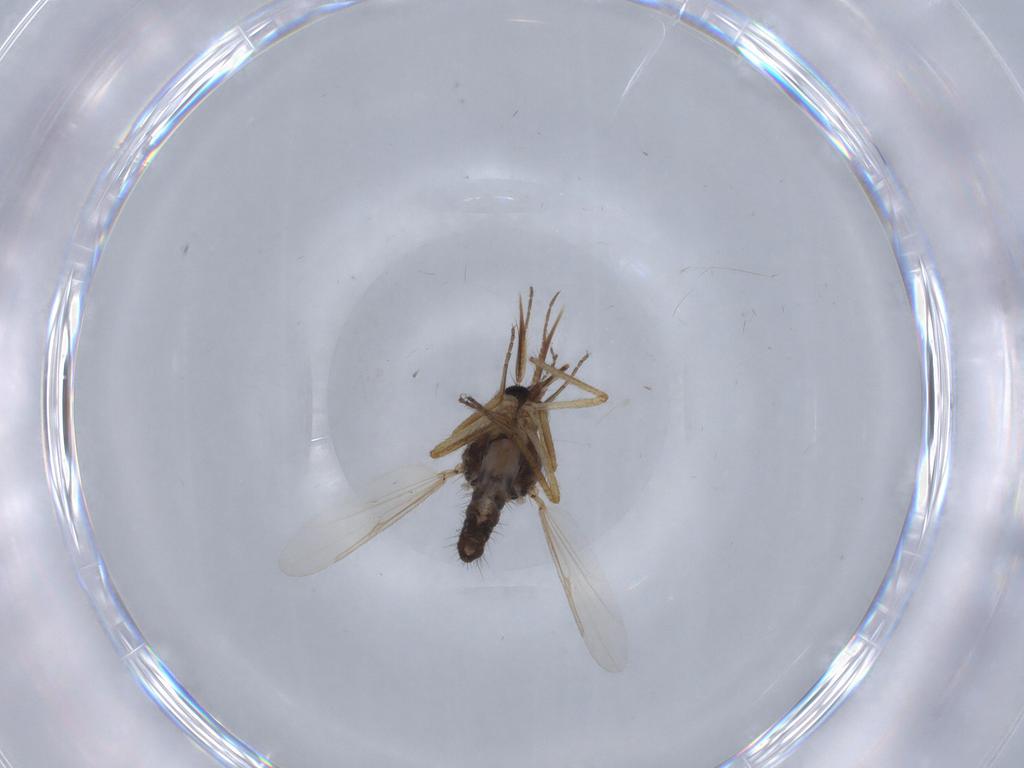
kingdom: Animalia
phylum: Arthropoda
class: Insecta
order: Diptera
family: Ceratopogonidae
